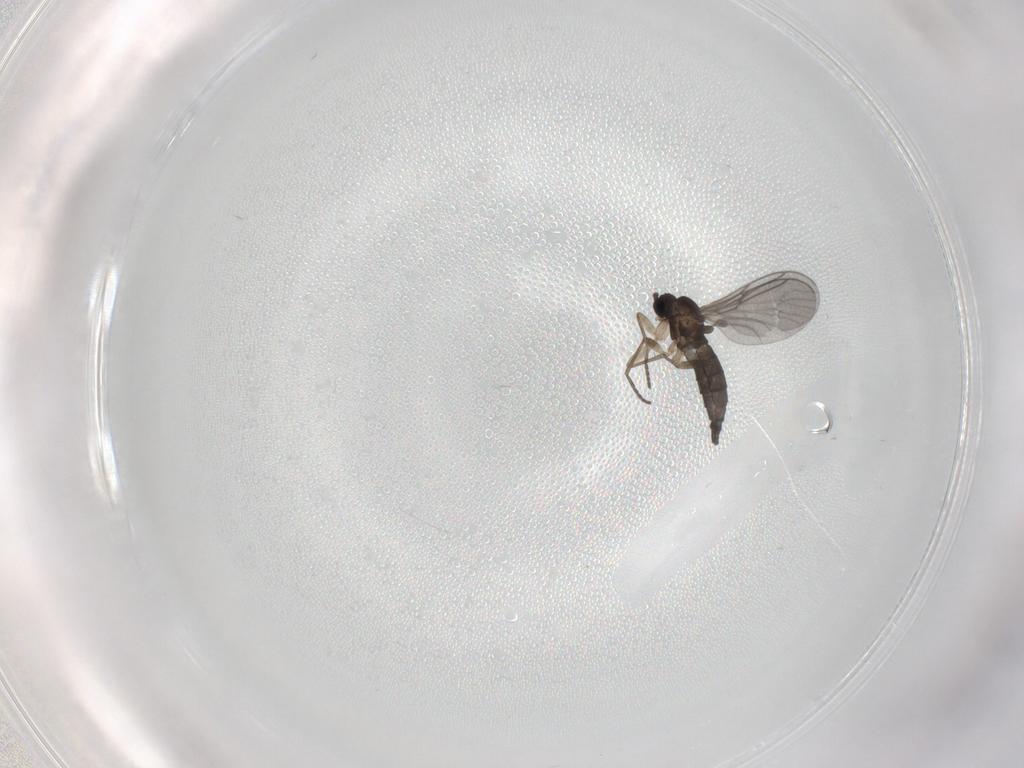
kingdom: Animalia
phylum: Arthropoda
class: Insecta
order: Diptera
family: Sciaridae
